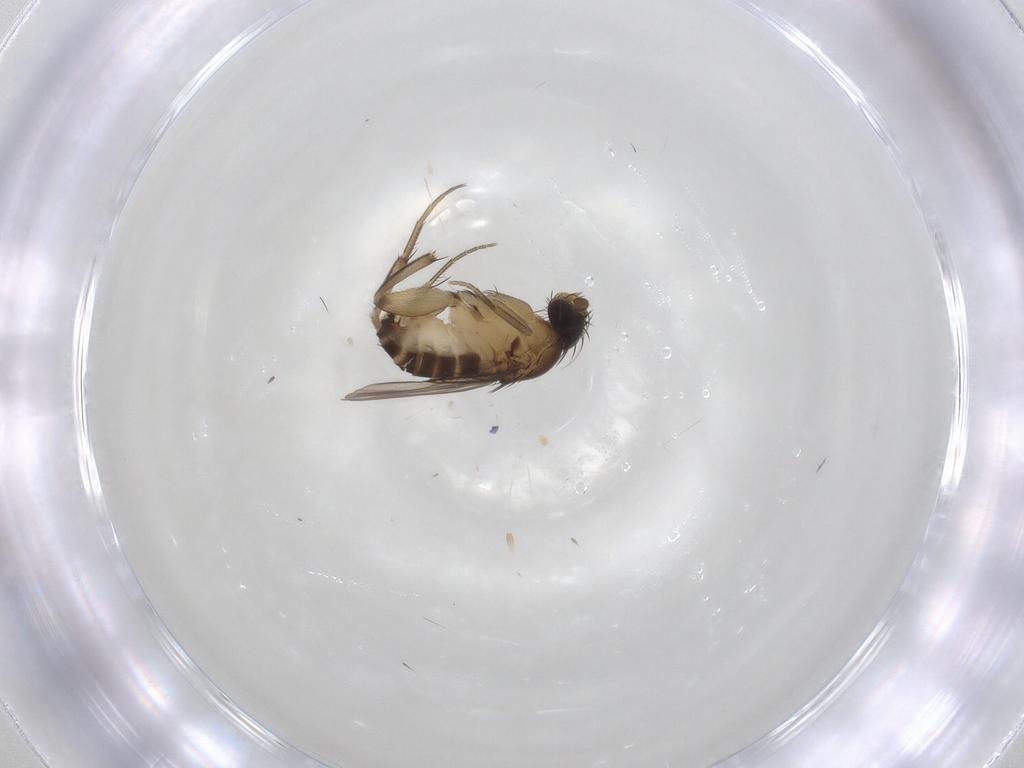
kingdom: Animalia
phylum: Arthropoda
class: Insecta
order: Diptera
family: Phoridae
